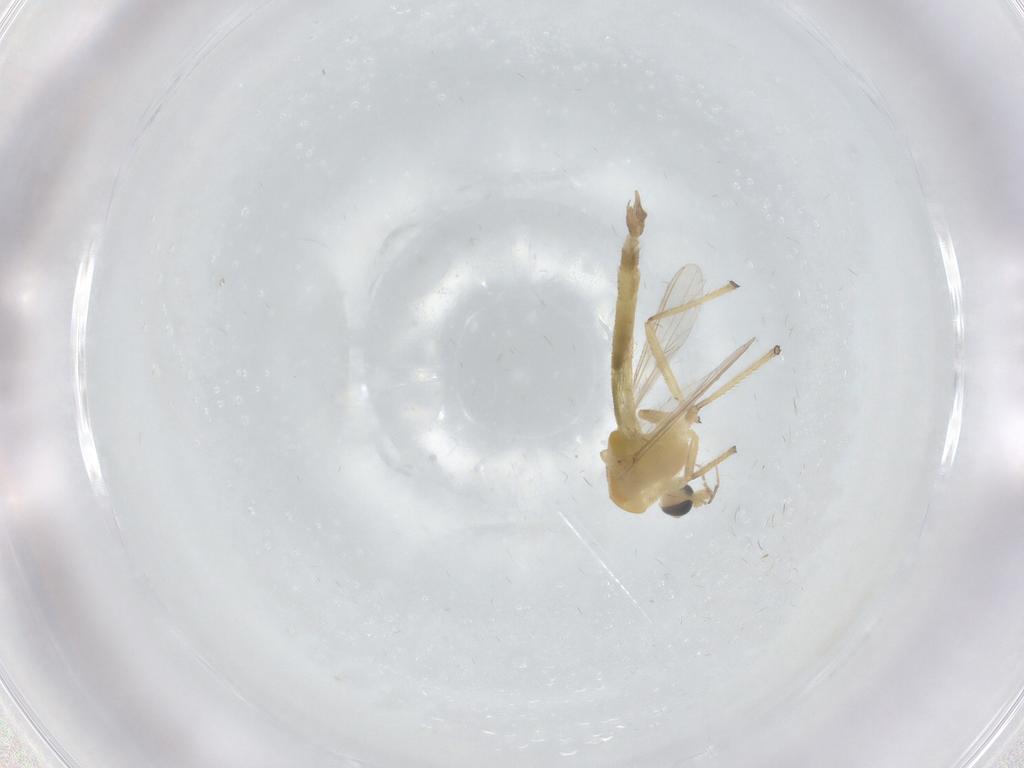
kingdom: Animalia
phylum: Arthropoda
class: Insecta
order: Diptera
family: Chironomidae
